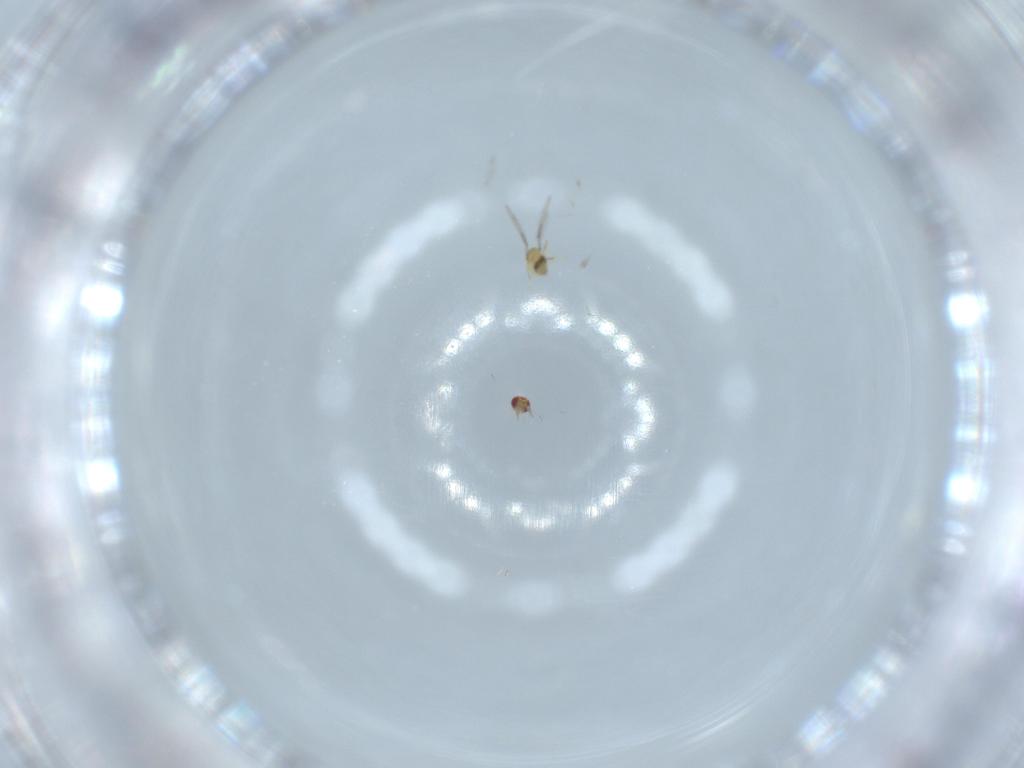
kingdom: Animalia
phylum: Arthropoda
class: Insecta
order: Hymenoptera
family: Trichogrammatidae
